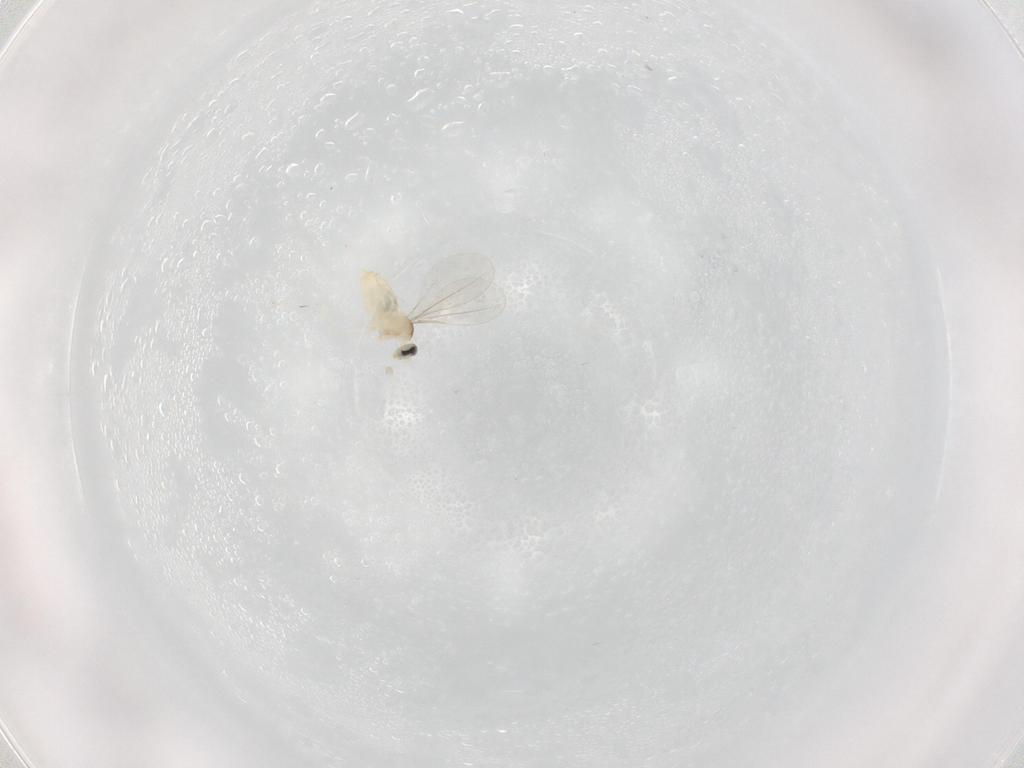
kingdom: Animalia
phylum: Arthropoda
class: Insecta
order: Diptera
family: Cecidomyiidae
